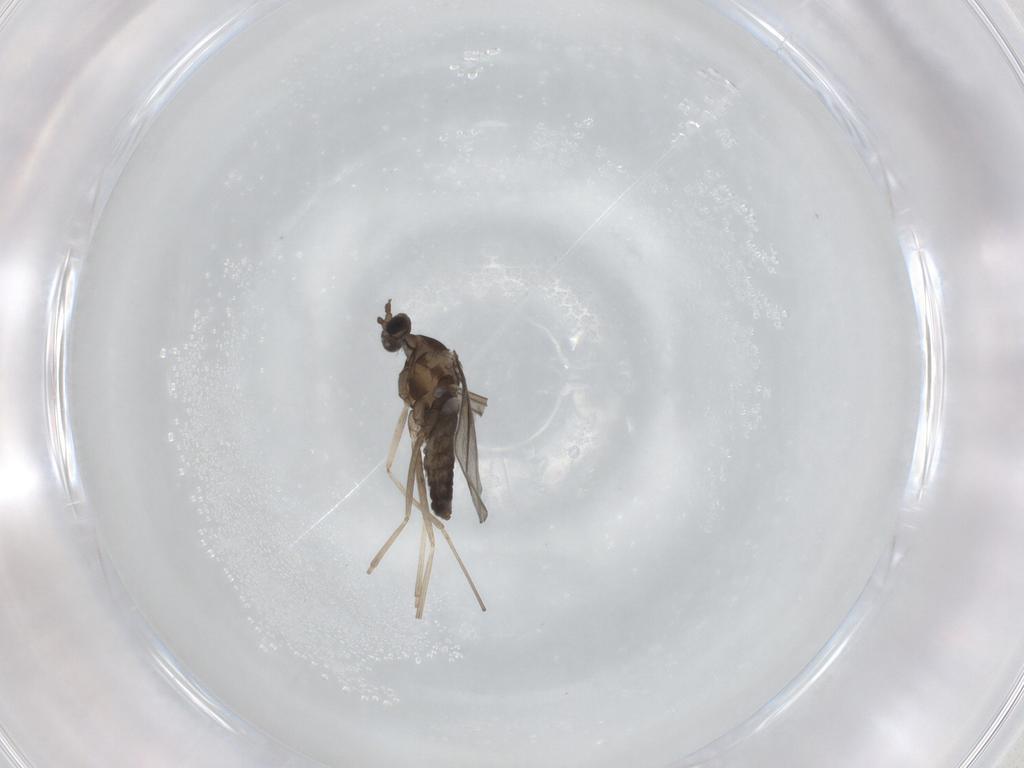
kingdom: Animalia
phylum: Arthropoda
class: Insecta
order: Diptera
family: Cecidomyiidae
